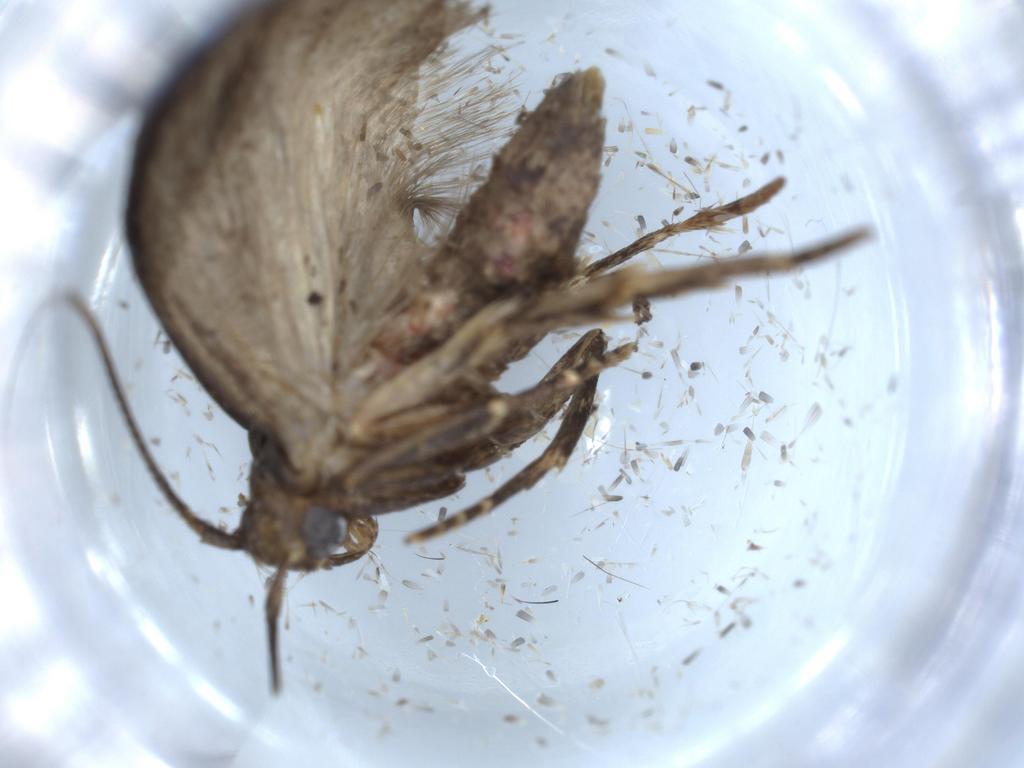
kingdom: Animalia
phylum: Arthropoda
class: Insecta
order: Lepidoptera
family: Autostichidae
